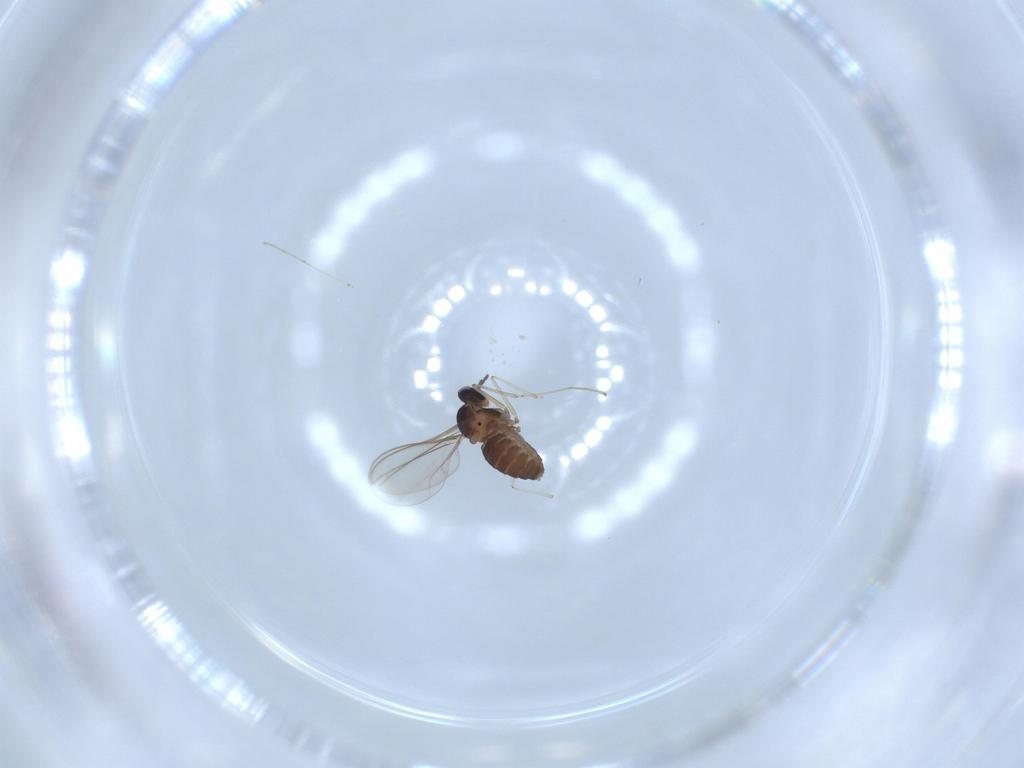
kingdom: Animalia
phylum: Arthropoda
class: Insecta
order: Diptera
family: Cecidomyiidae
